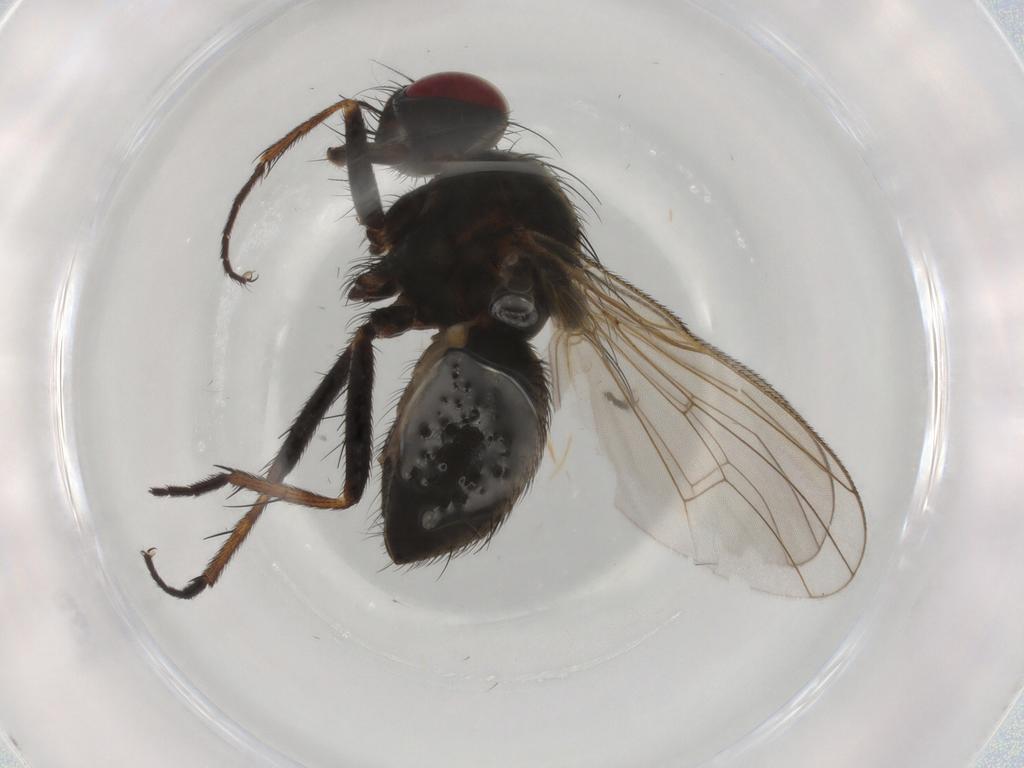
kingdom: Animalia
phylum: Arthropoda
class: Insecta
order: Diptera
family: Muscidae
